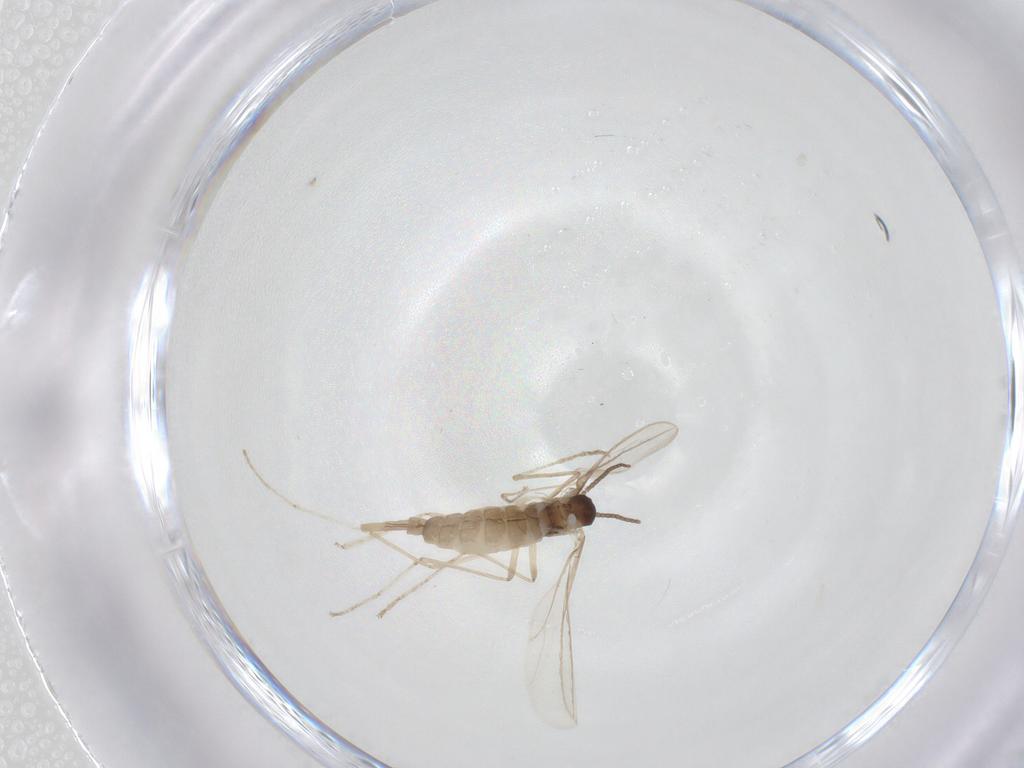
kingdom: Animalia
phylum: Arthropoda
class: Insecta
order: Diptera
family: Cecidomyiidae
